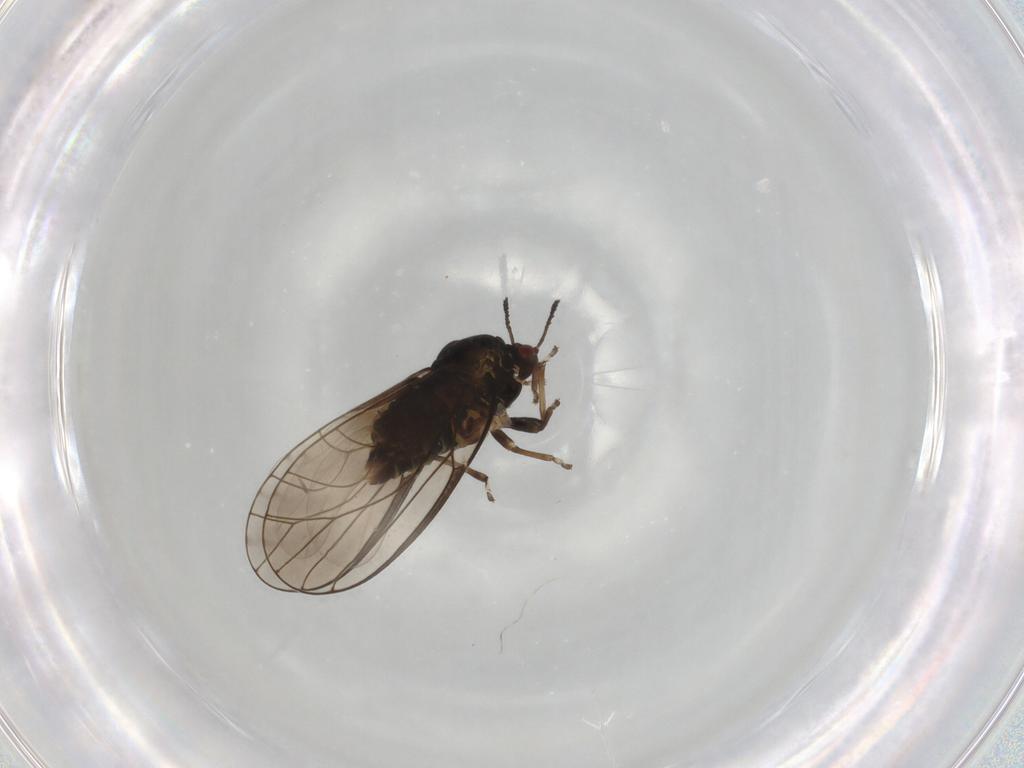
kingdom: Animalia
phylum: Arthropoda
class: Insecta
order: Hemiptera
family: Psylloidea_incertae_sedis
